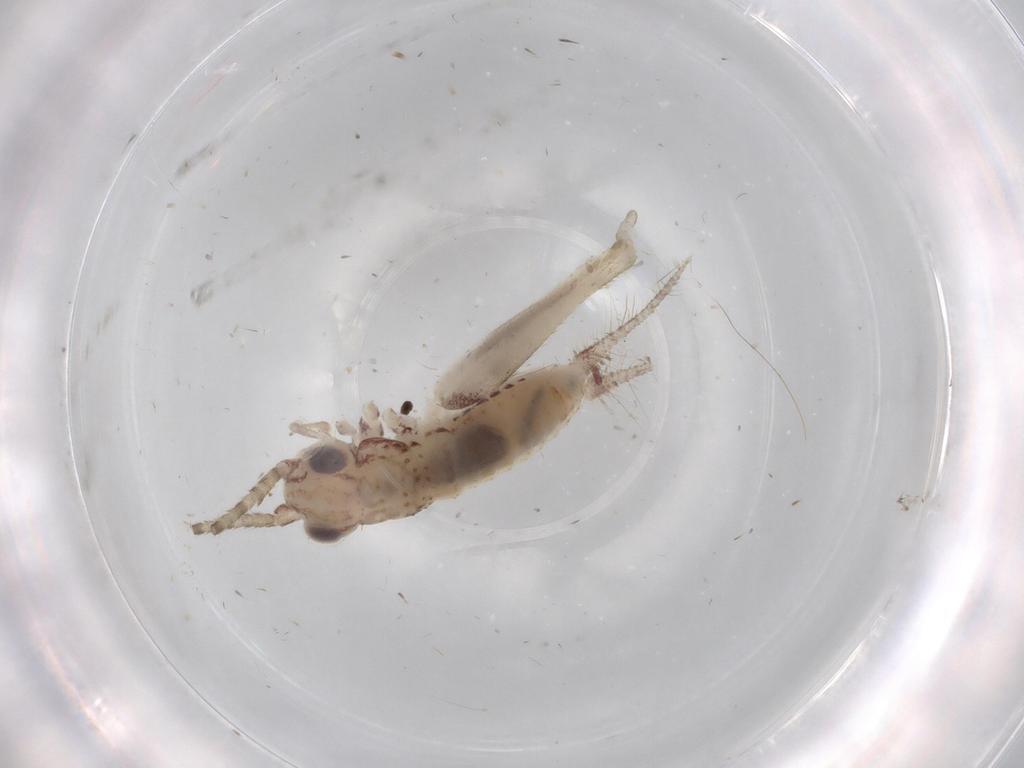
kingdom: Animalia
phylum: Arthropoda
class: Insecta
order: Orthoptera
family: Trigonidiidae
